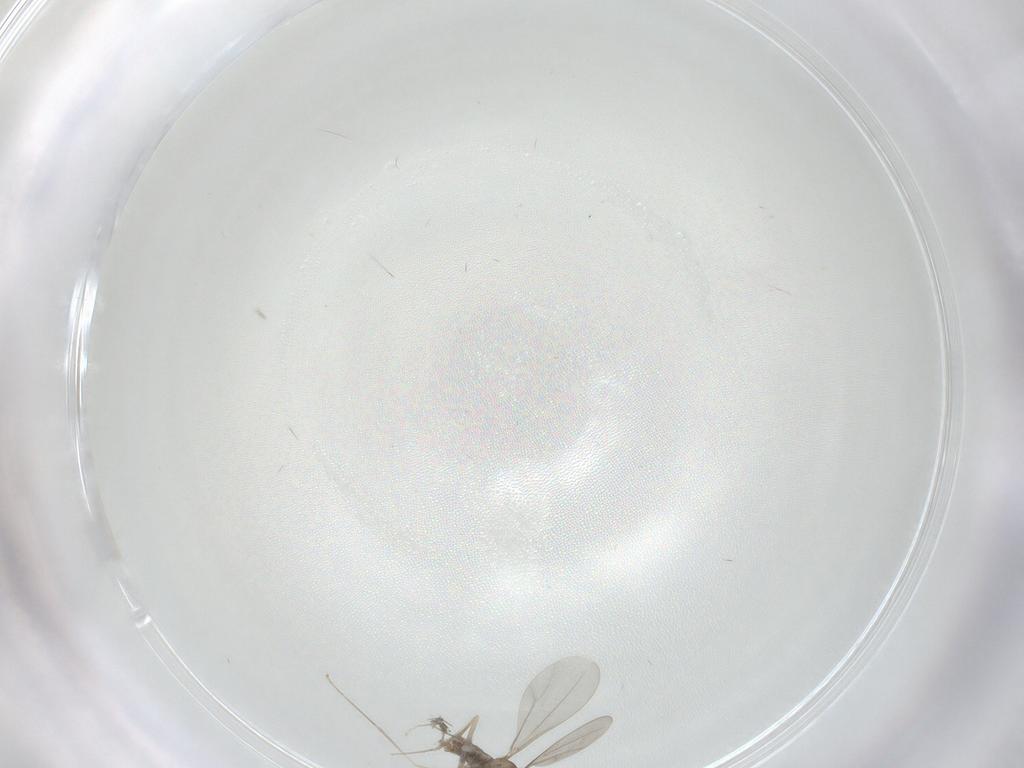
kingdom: Animalia
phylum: Arthropoda
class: Insecta
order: Diptera
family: Cecidomyiidae
